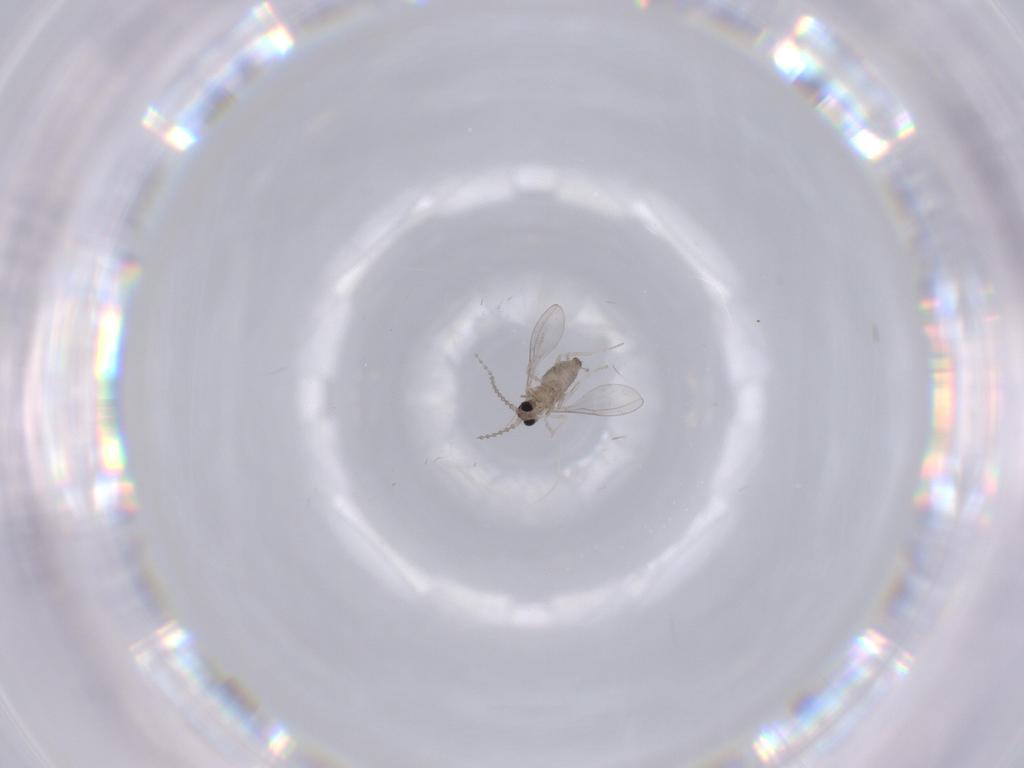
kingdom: Animalia
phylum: Arthropoda
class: Insecta
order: Diptera
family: Cecidomyiidae
